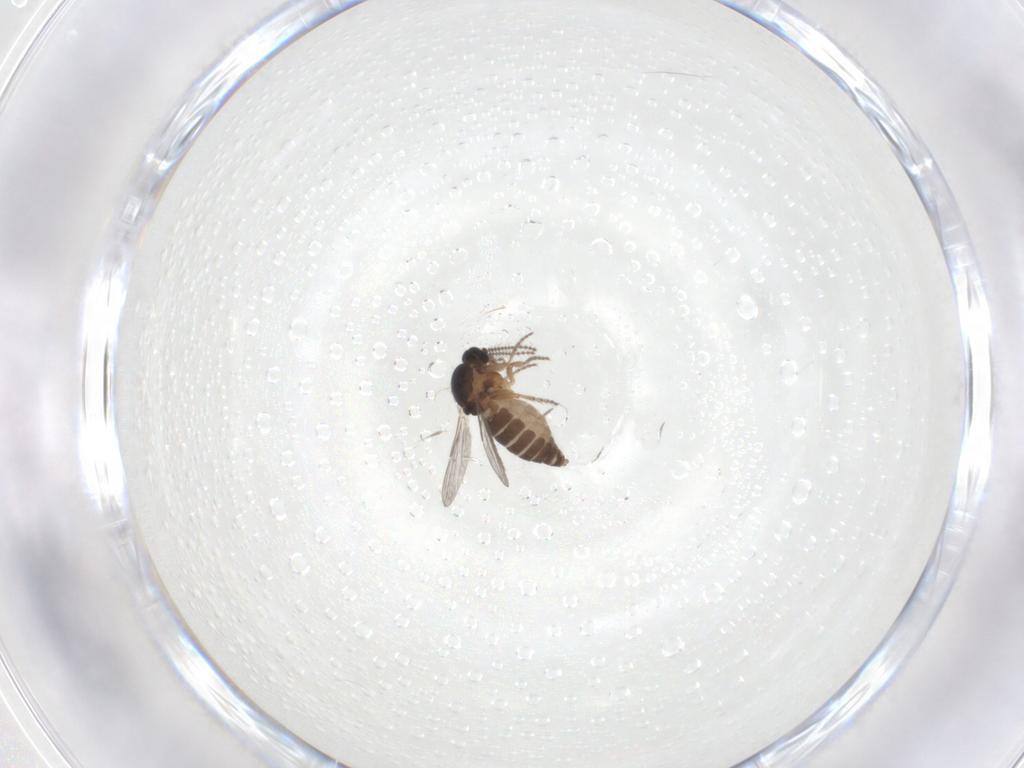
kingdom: Animalia
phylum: Arthropoda
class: Insecta
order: Diptera
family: Ceratopogonidae
